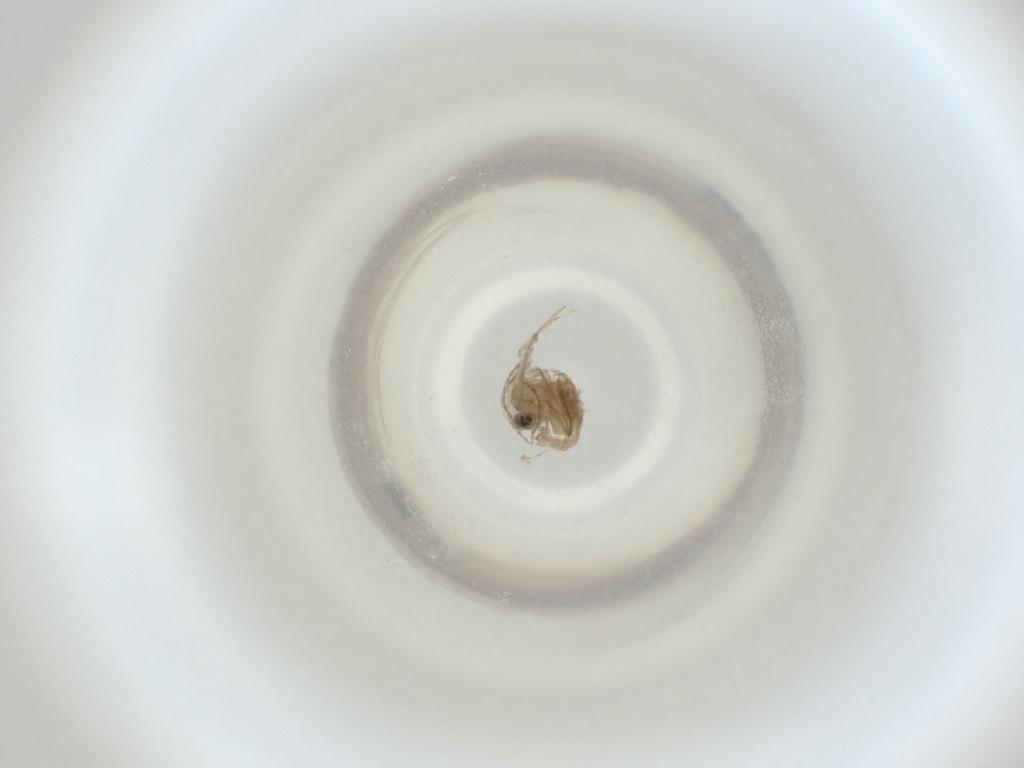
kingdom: Animalia
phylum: Arthropoda
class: Insecta
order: Diptera
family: Cecidomyiidae
